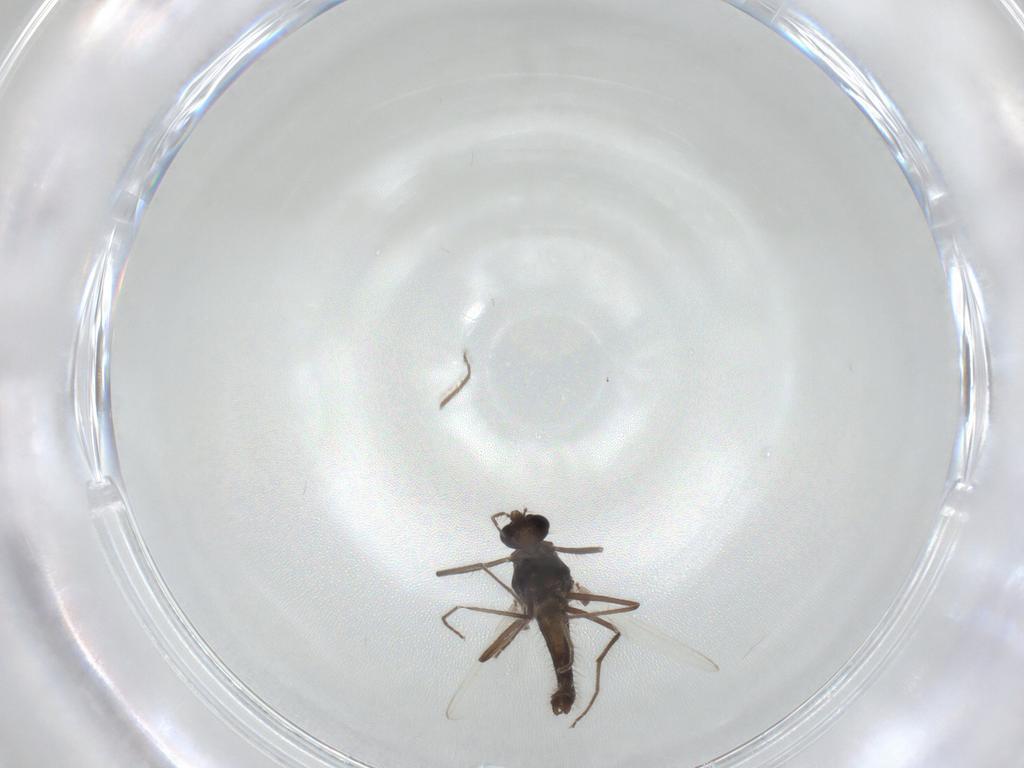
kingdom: Animalia
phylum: Arthropoda
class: Insecta
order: Diptera
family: Chironomidae
